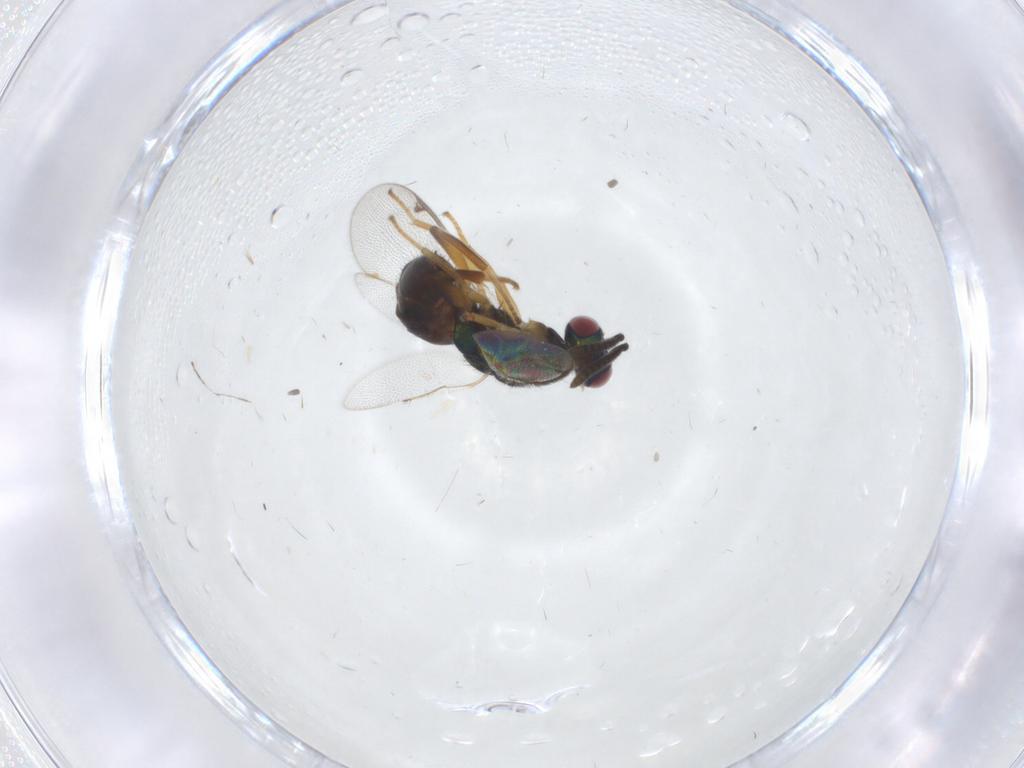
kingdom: Animalia
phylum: Arthropoda
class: Insecta
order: Hymenoptera
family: Torymidae
